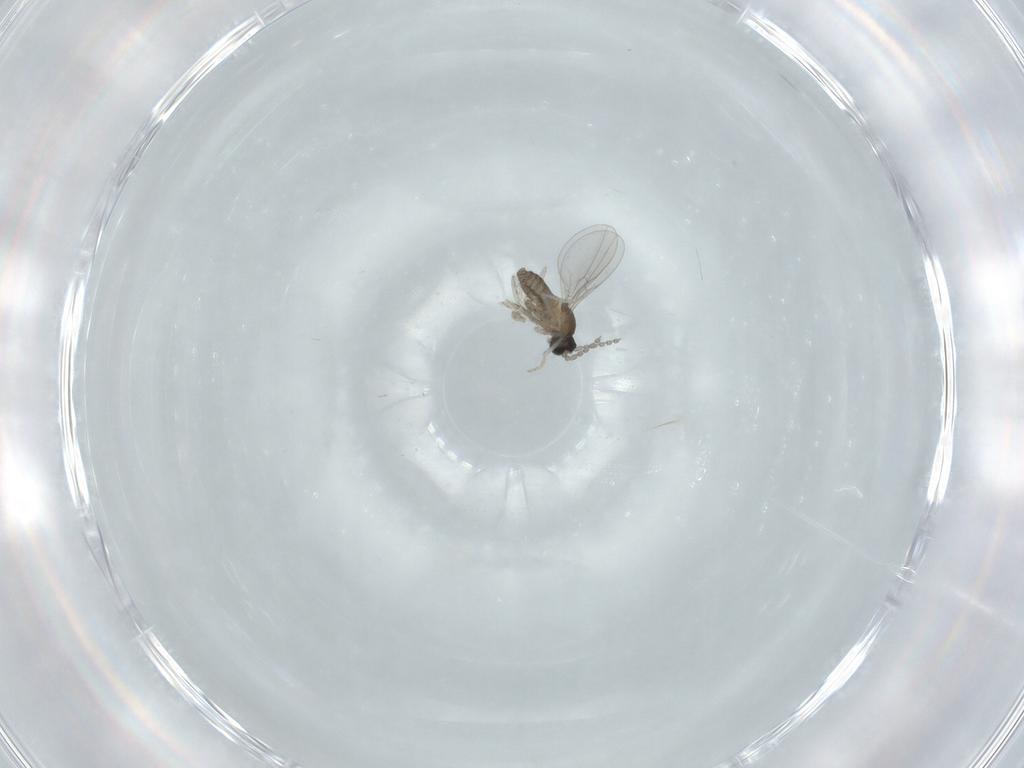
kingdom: Animalia
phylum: Arthropoda
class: Insecta
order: Diptera
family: Cecidomyiidae
